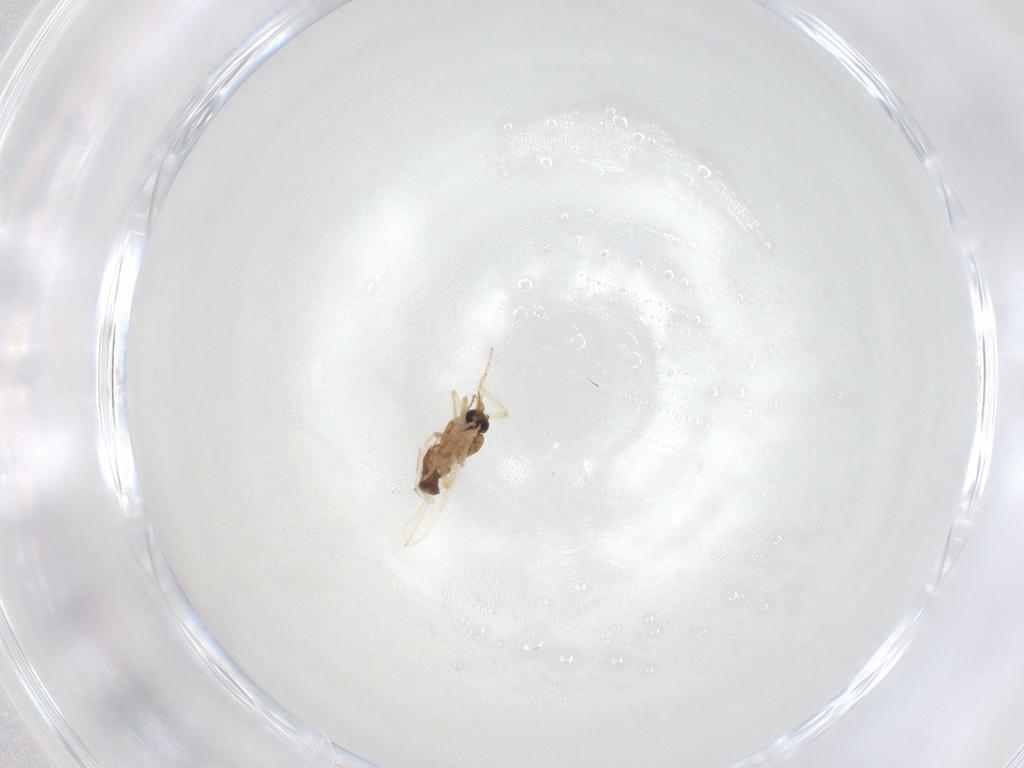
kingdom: Animalia
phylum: Arthropoda
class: Insecta
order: Diptera
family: Ceratopogonidae
